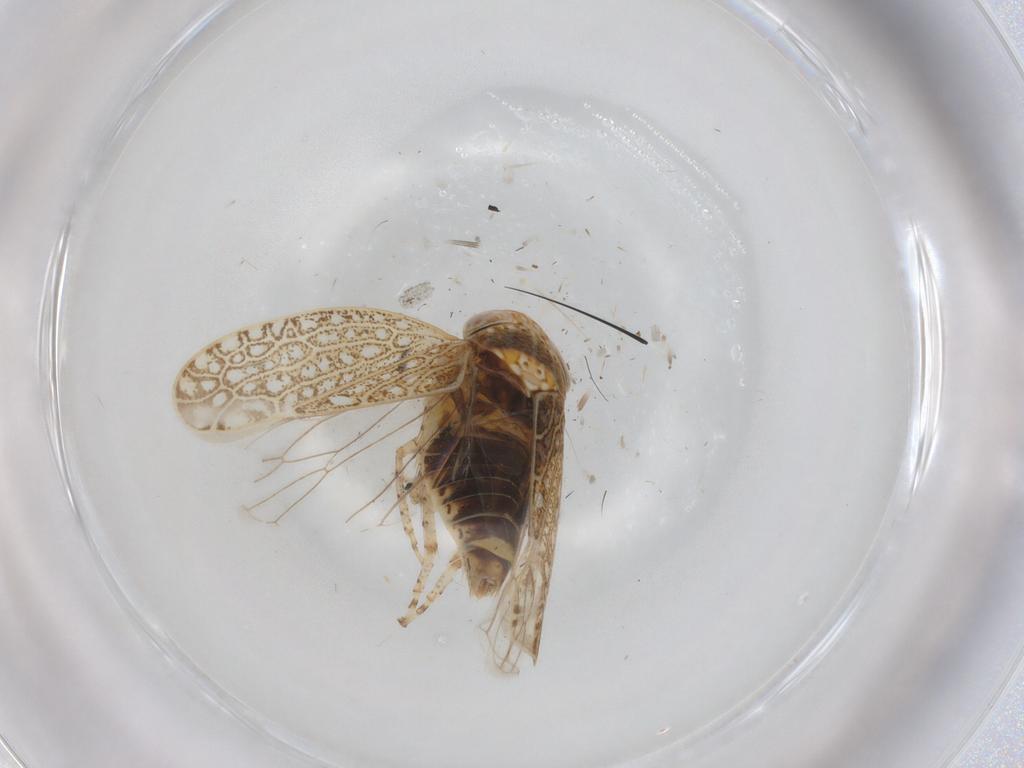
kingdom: Animalia
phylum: Arthropoda
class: Insecta
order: Hemiptera
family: Cicadellidae
